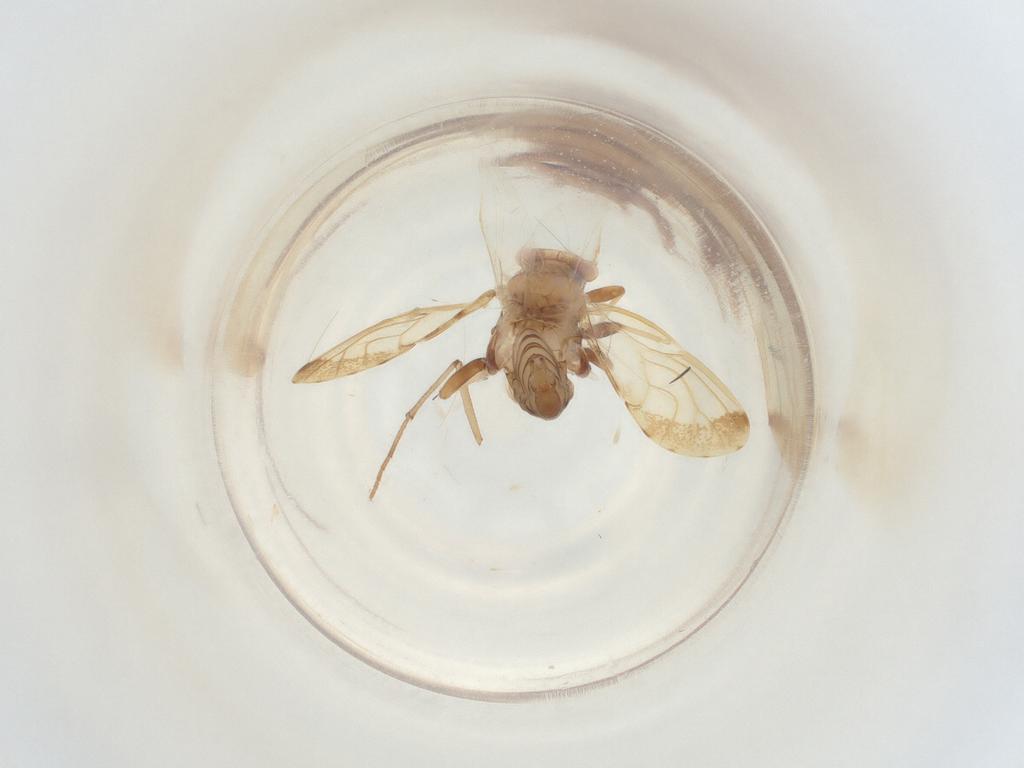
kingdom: Animalia
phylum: Arthropoda
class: Insecta
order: Diptera
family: Sciaridae
